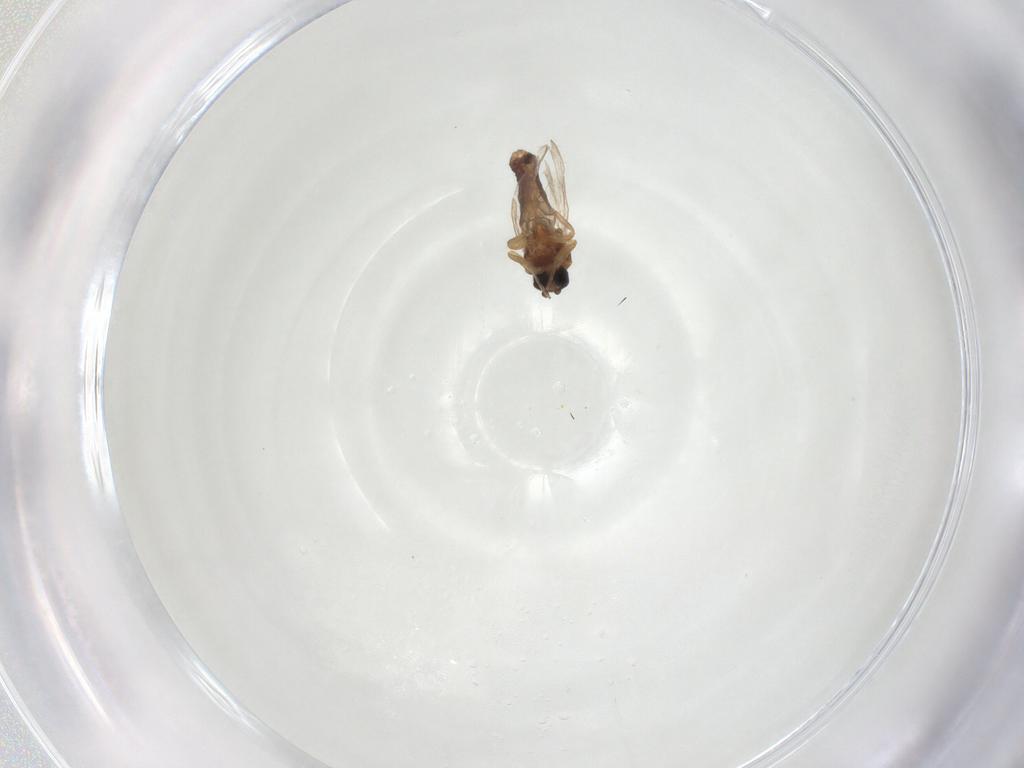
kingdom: Animalia
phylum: Arthropoda
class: Insecta
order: Diptera
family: Ceratopogonidae
